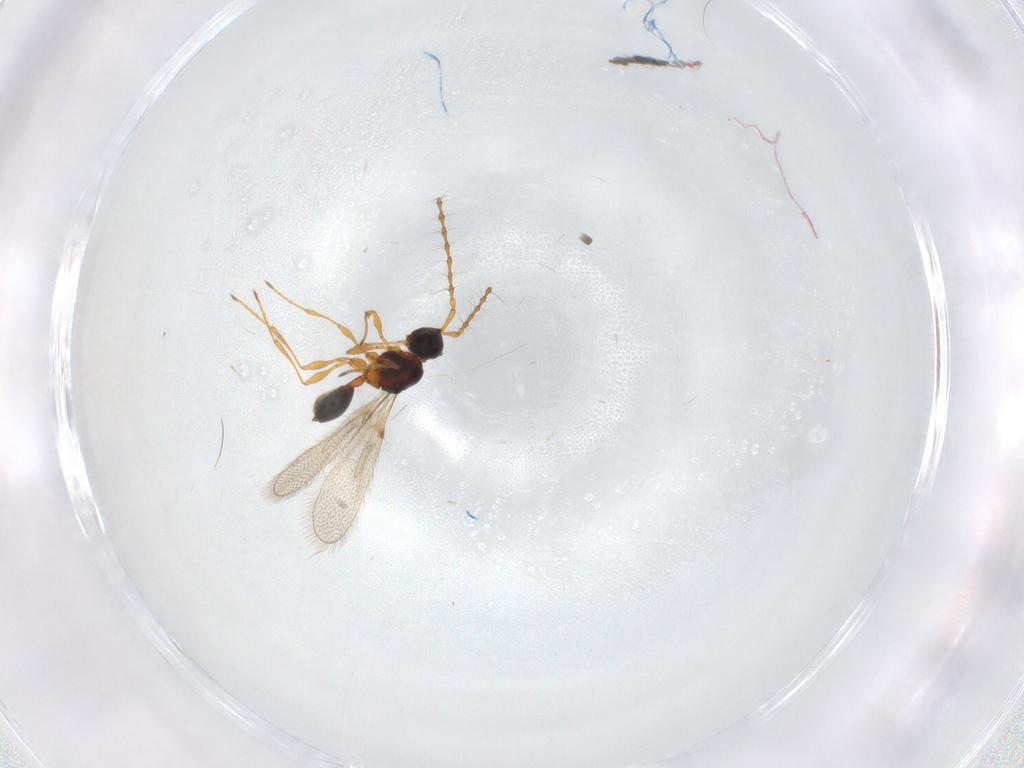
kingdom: Animalia
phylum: Arthropoda
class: Insecta
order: Hymenoptera
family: Diapriidae
